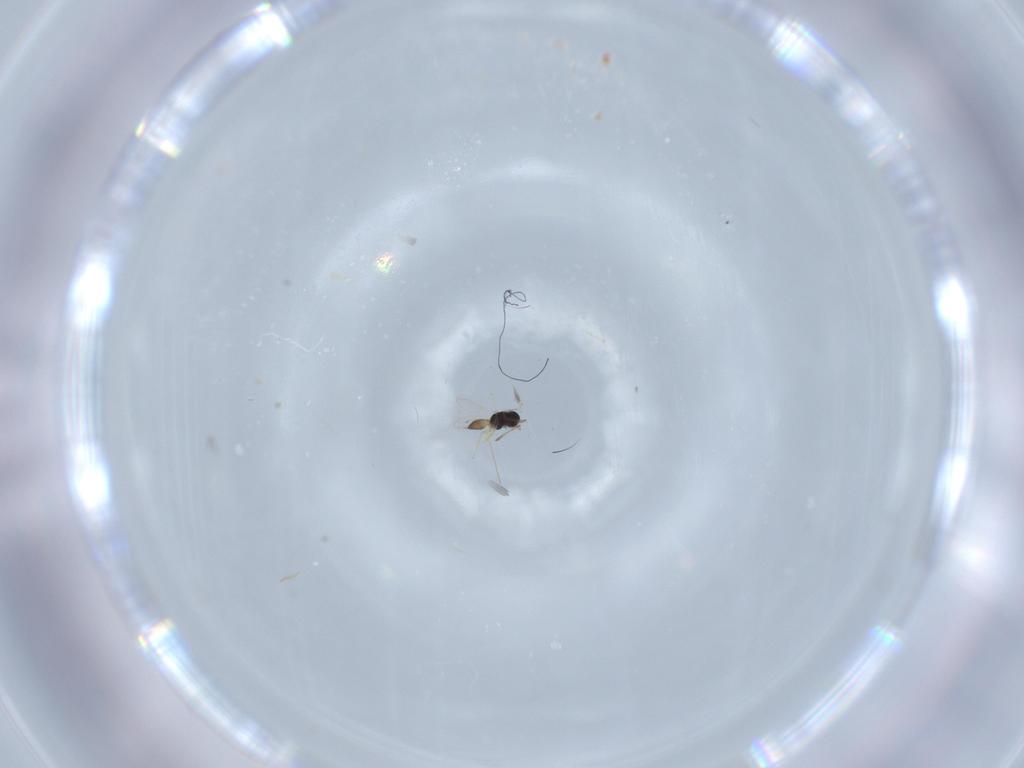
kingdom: Animalia
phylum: Arthropoda
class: Insecta
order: Hymenoptera
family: Scelionidae
